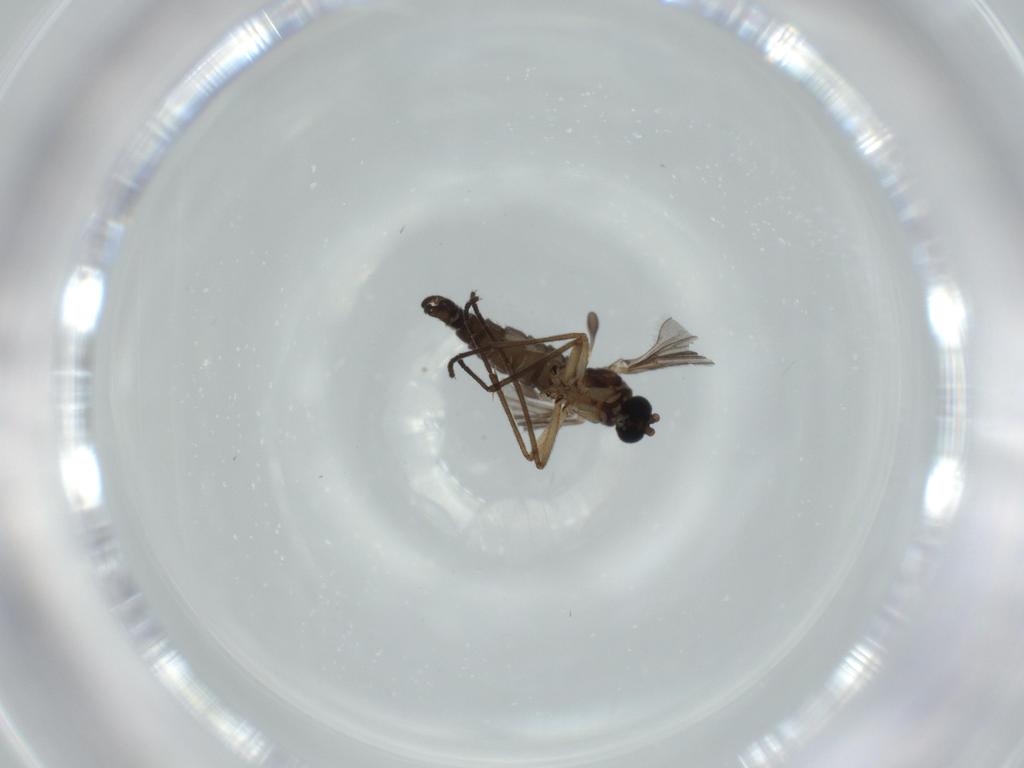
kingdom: Animalia
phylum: Arthropoda
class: Insecta
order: Diptera
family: Sciaridae
